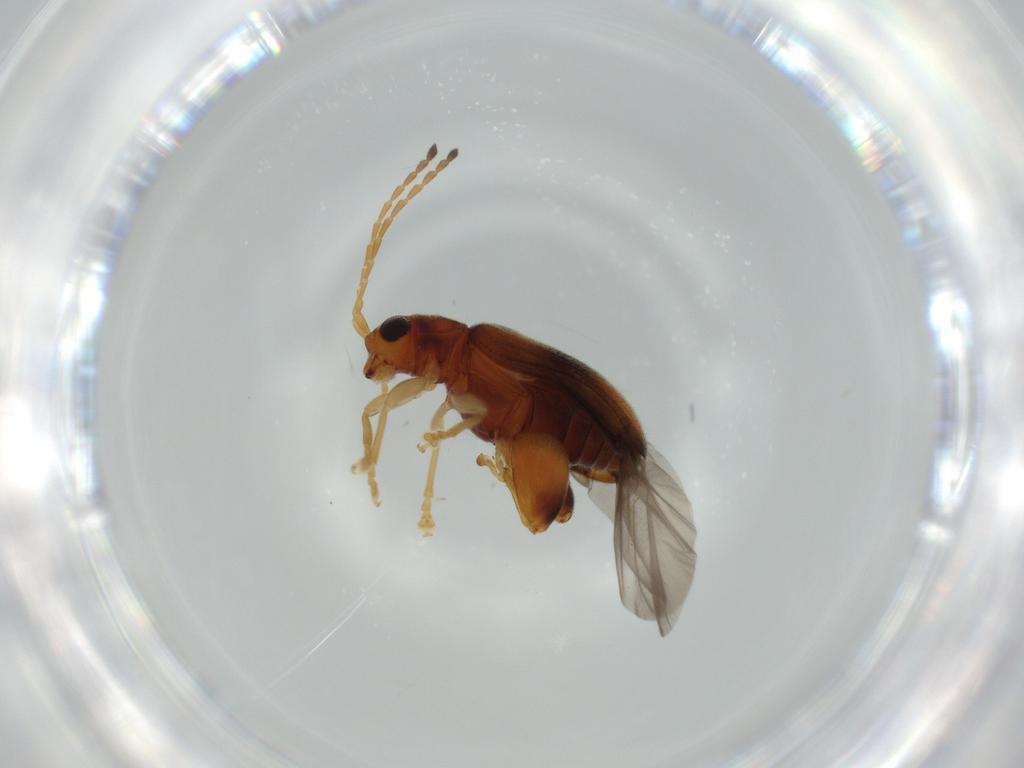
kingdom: Animalia
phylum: Arthropoda
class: Insecta
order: Coleoptera
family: Chrysomelidae
